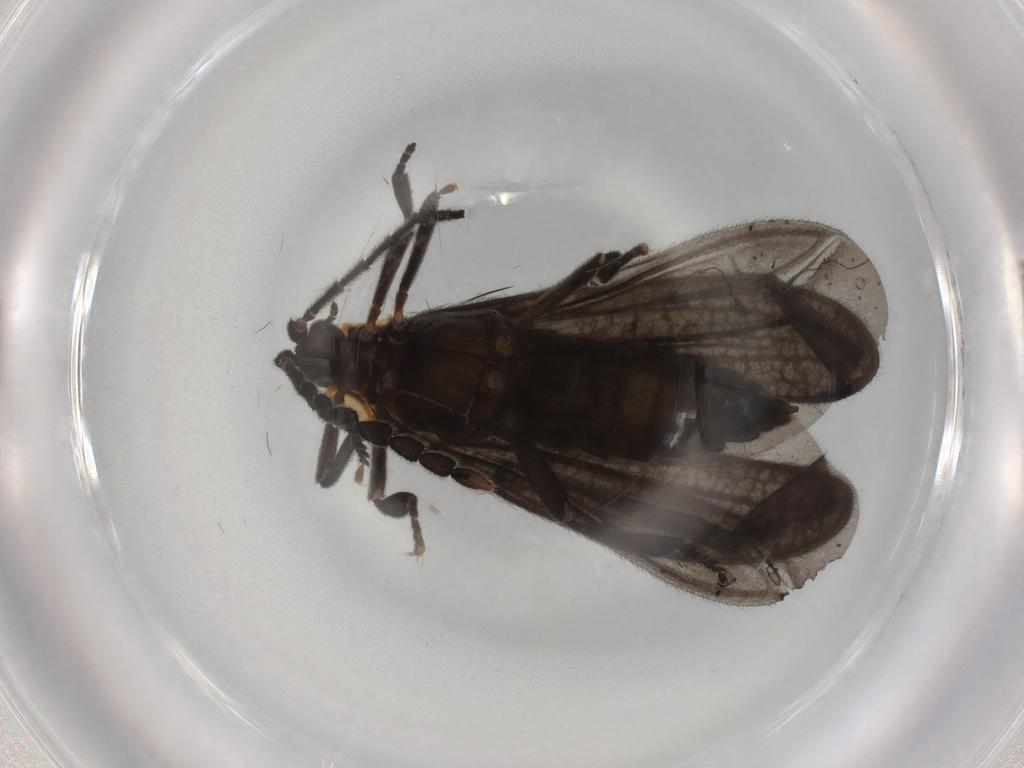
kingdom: Animalia
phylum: Arthropoda
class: Insecta
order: Coleoptera
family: Lycidae
